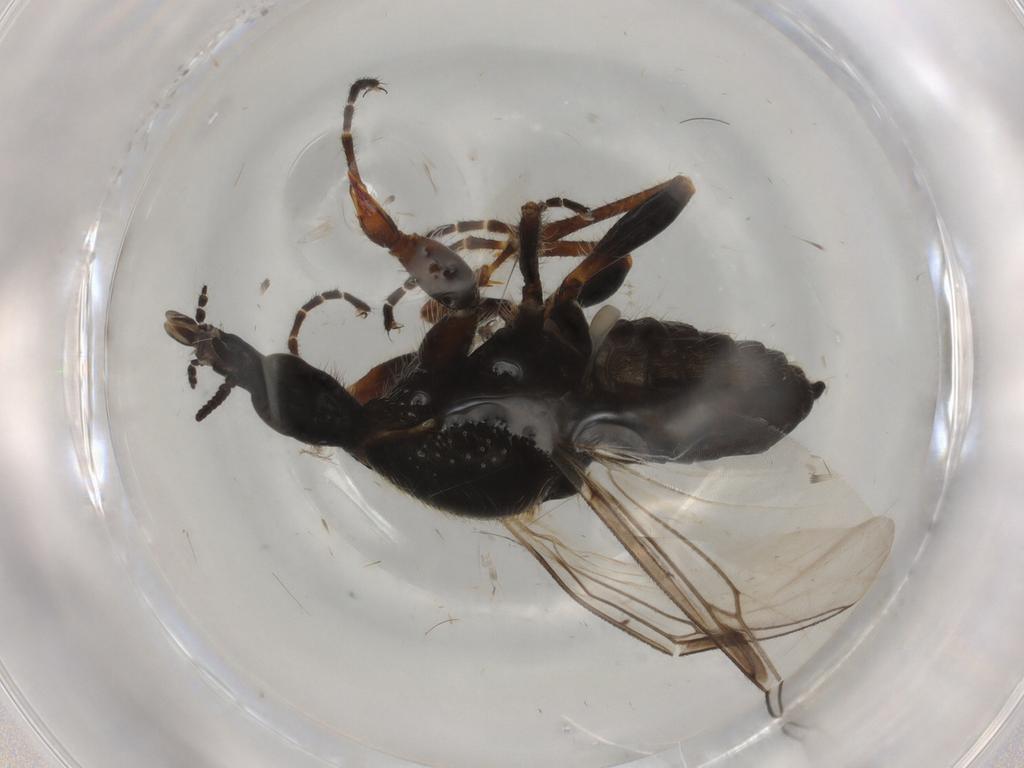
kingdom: Animalia
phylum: Arthropoda
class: Insecta
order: Diptera
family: Bibionidae
